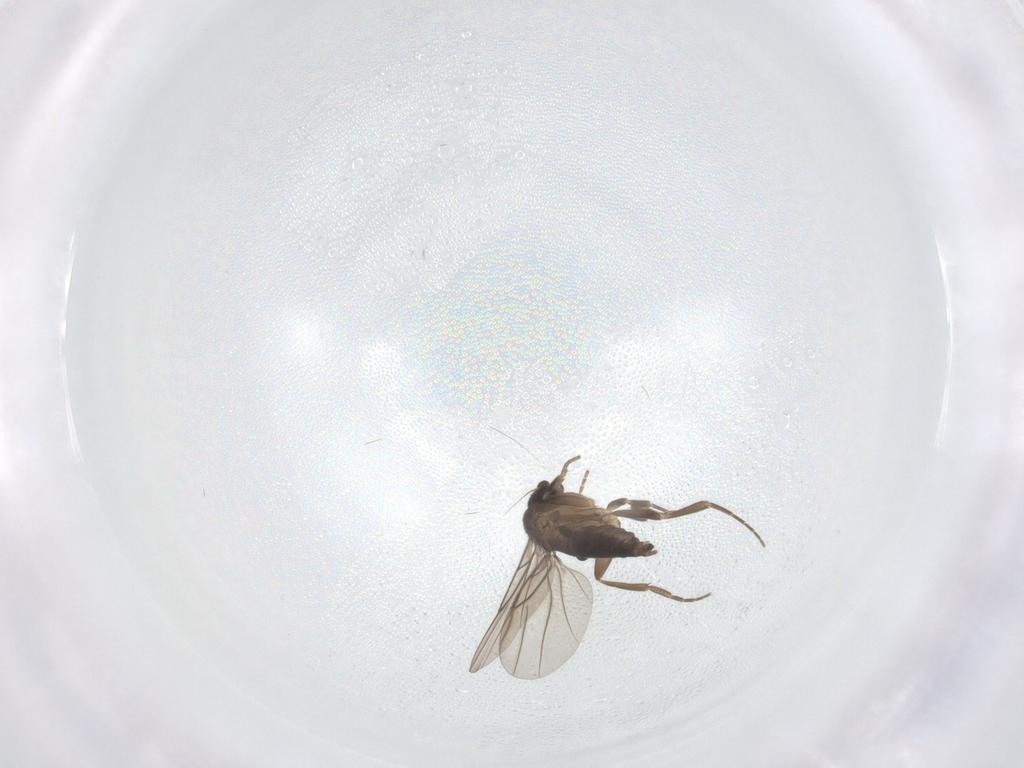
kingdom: Animalia
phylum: Arthropoda
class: Insecta
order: Diptera
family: Phoridae
